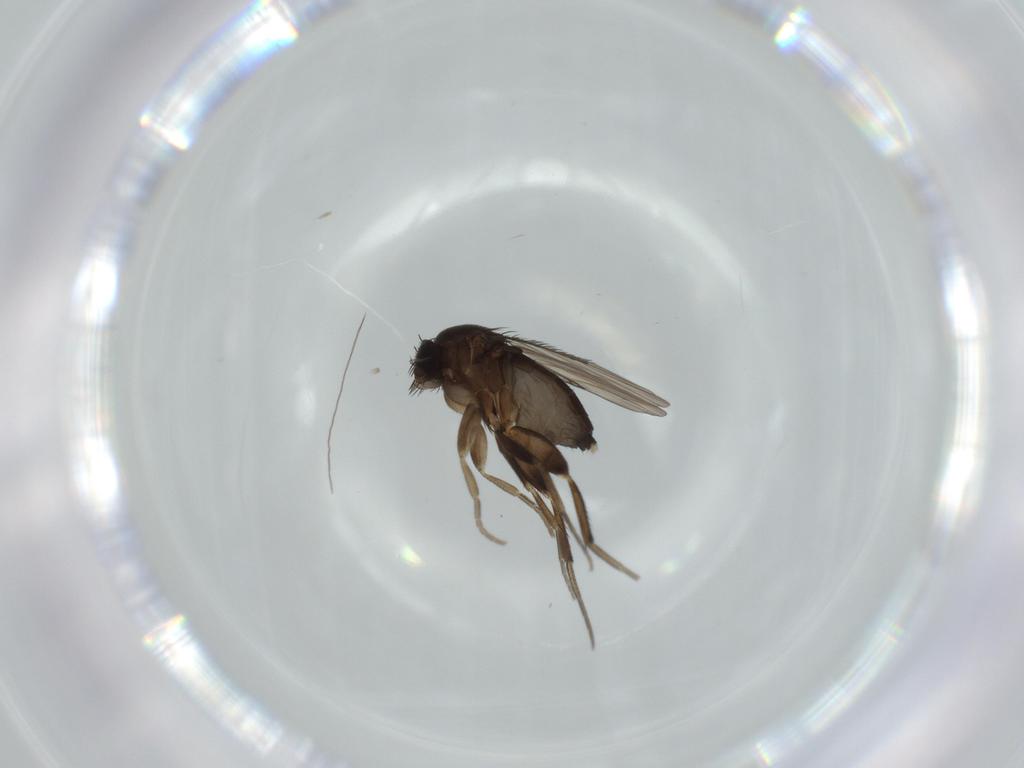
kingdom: Animalia
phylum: Arthropoda
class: Insecta
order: Diptera
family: Phoridae
